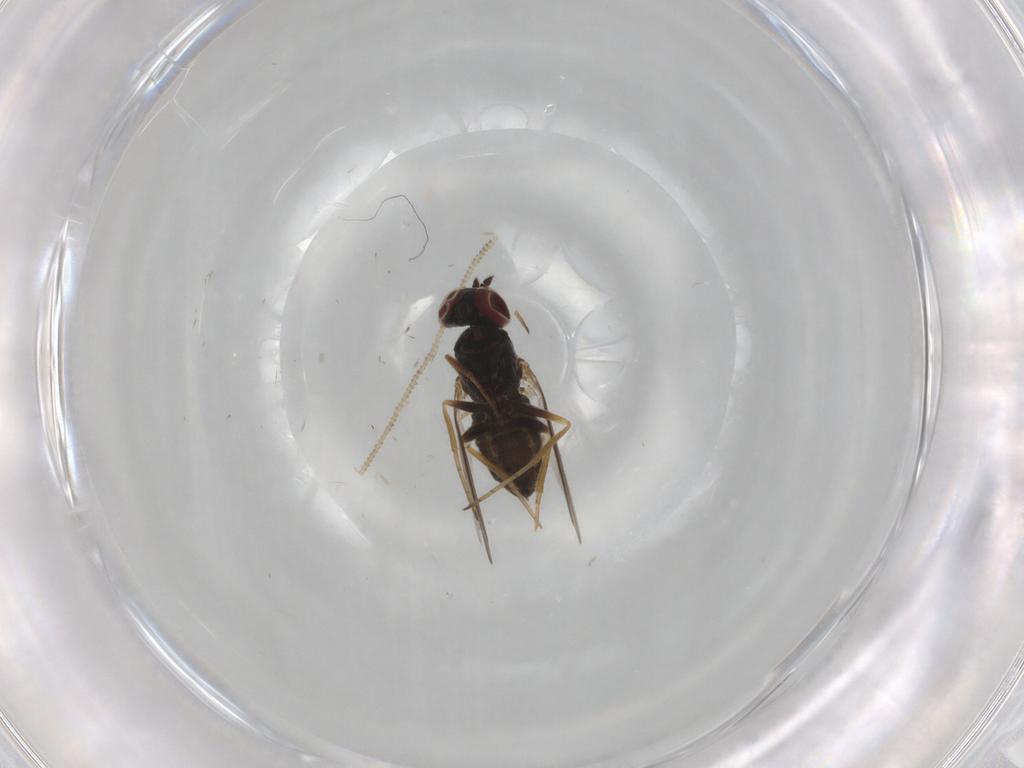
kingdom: Animalia
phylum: Arthropoda
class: Insecta
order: Diptera
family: Dolichopodidae
